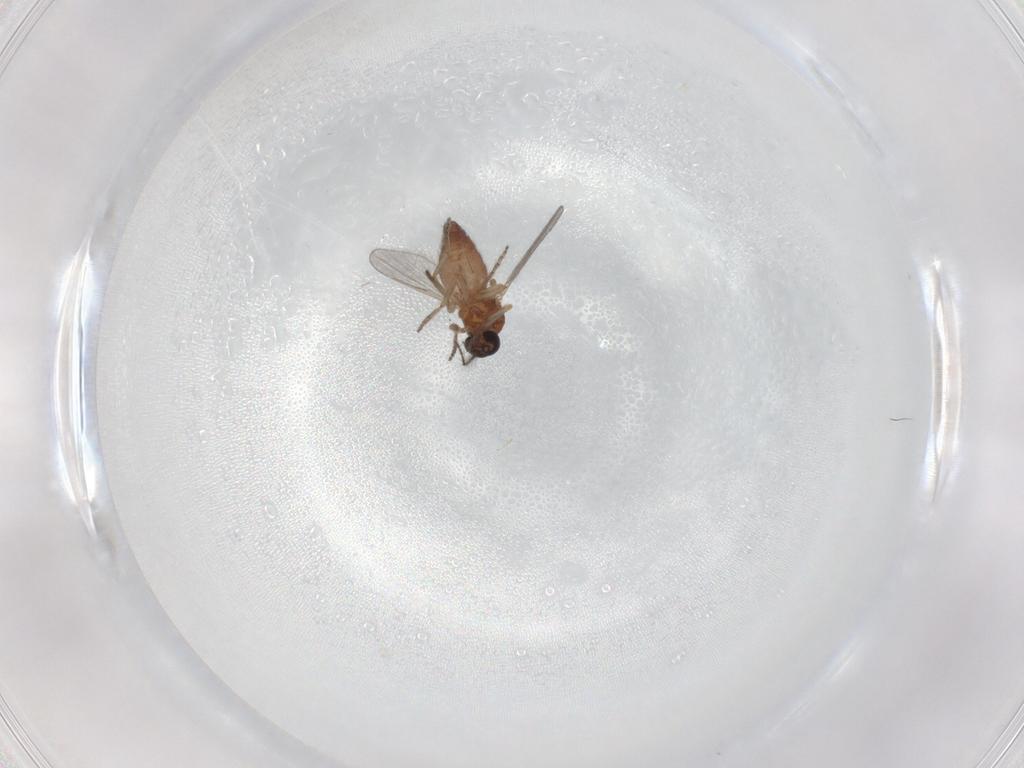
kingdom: Animalia
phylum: Arthropoda
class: Insecta
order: Diptera
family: Ceratopogonidae
